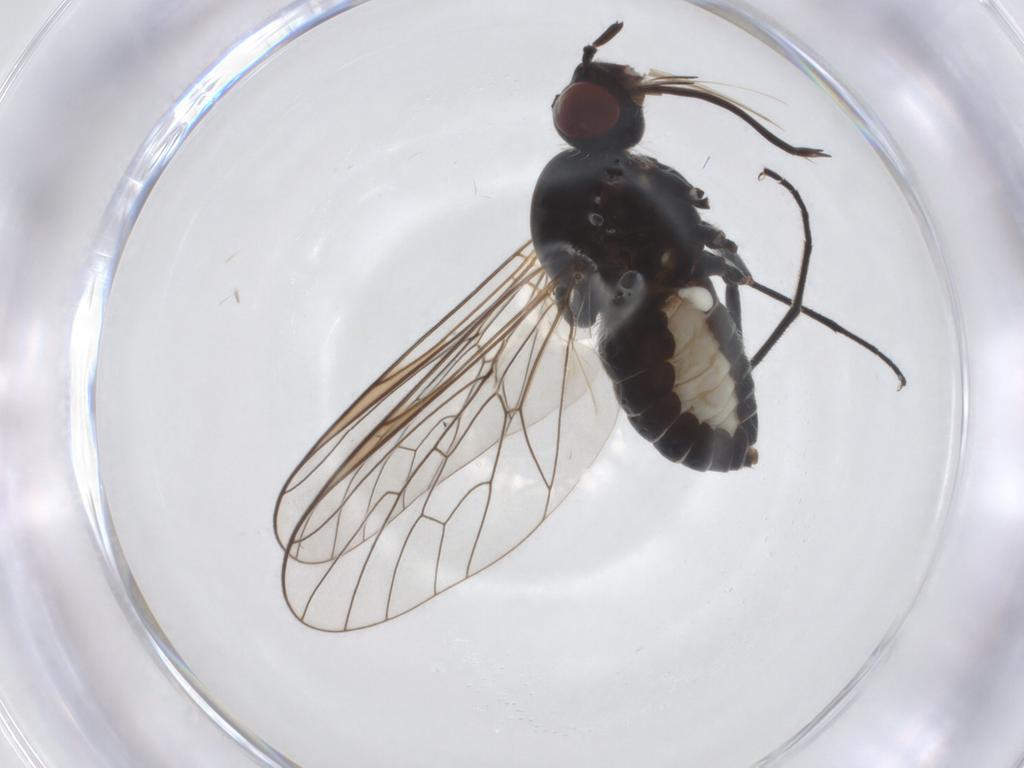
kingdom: Animalia
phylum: Arthropoda
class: Insecta
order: Diptera
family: Bombyliidae
